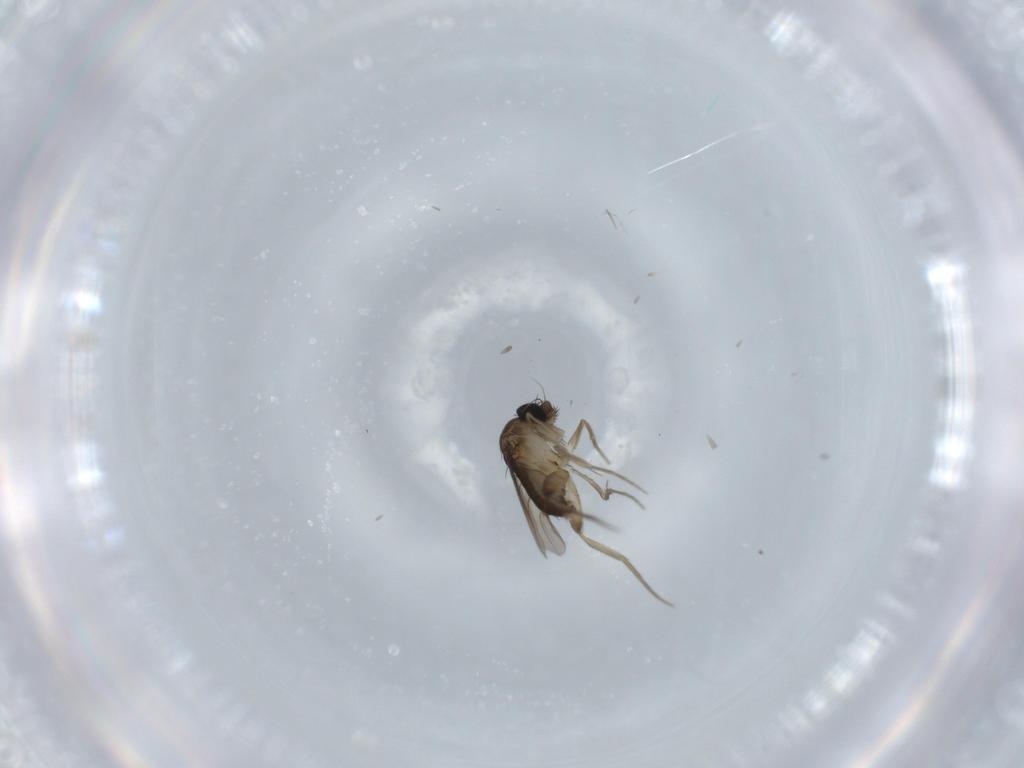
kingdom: Animalia
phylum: Arthropoda
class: Insecta
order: Diptera
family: Phoridae
